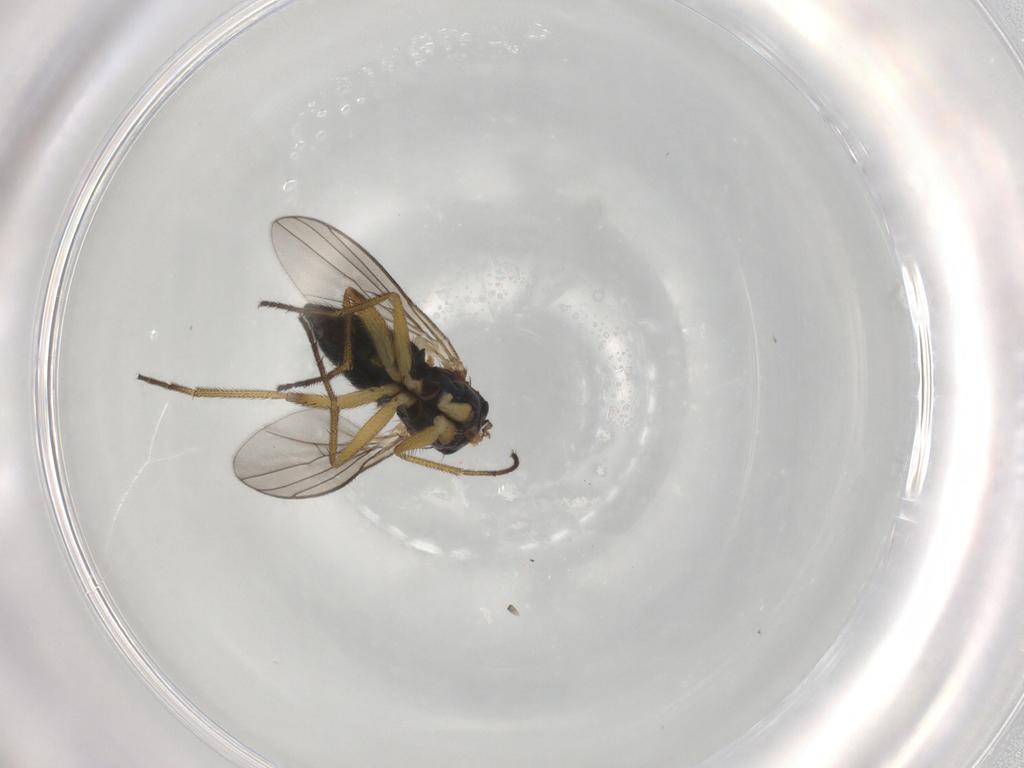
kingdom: Animalia
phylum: Arthropoda
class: Insecta
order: Diptera
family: Dolichopodidae
